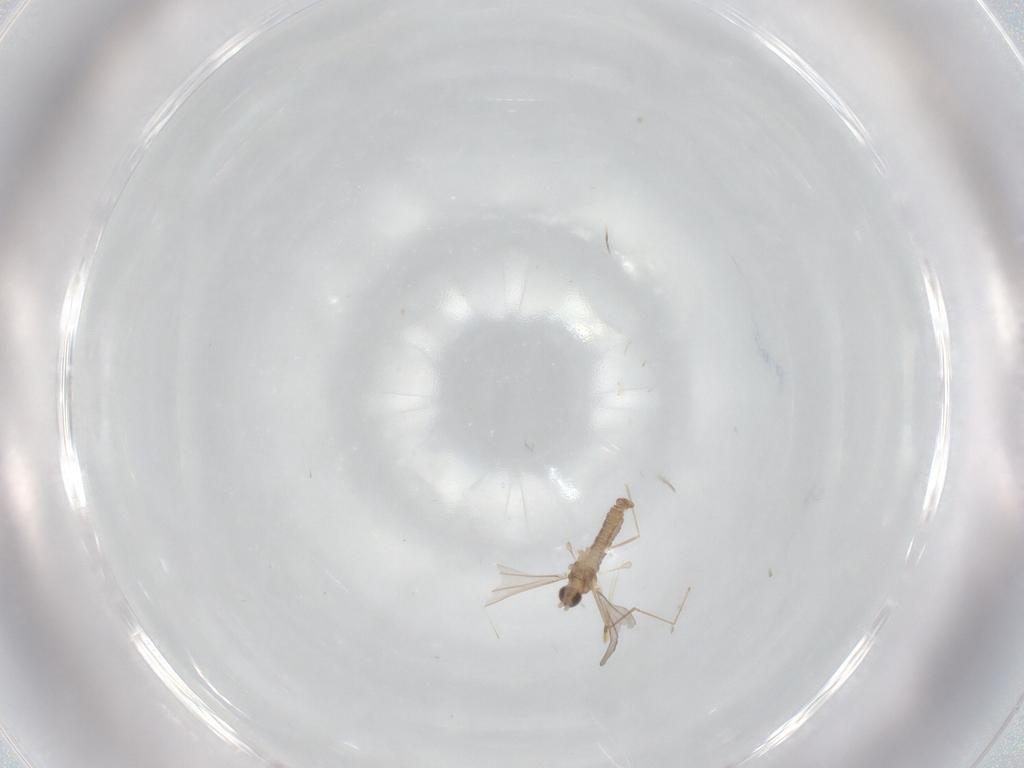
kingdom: Animalia
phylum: Arthropoda
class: Insecta
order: Diptera
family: Cecidomyiidae
